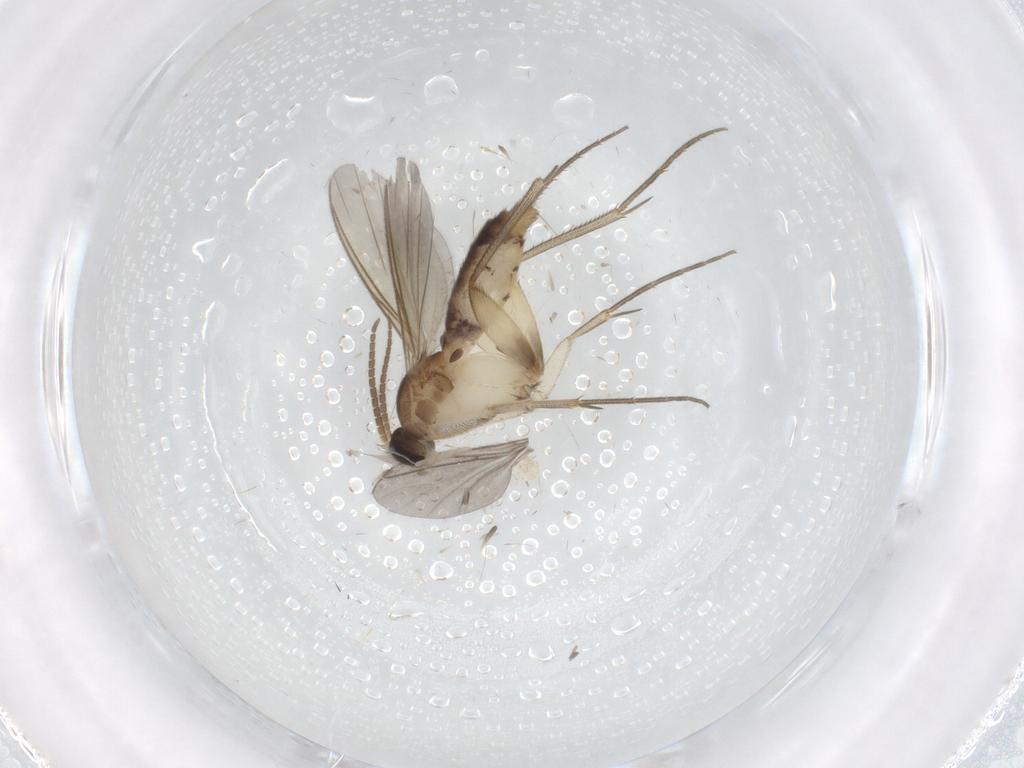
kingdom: Animalia
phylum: Arthropoda
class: Insecta
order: Diptera
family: Mycetophilidae
